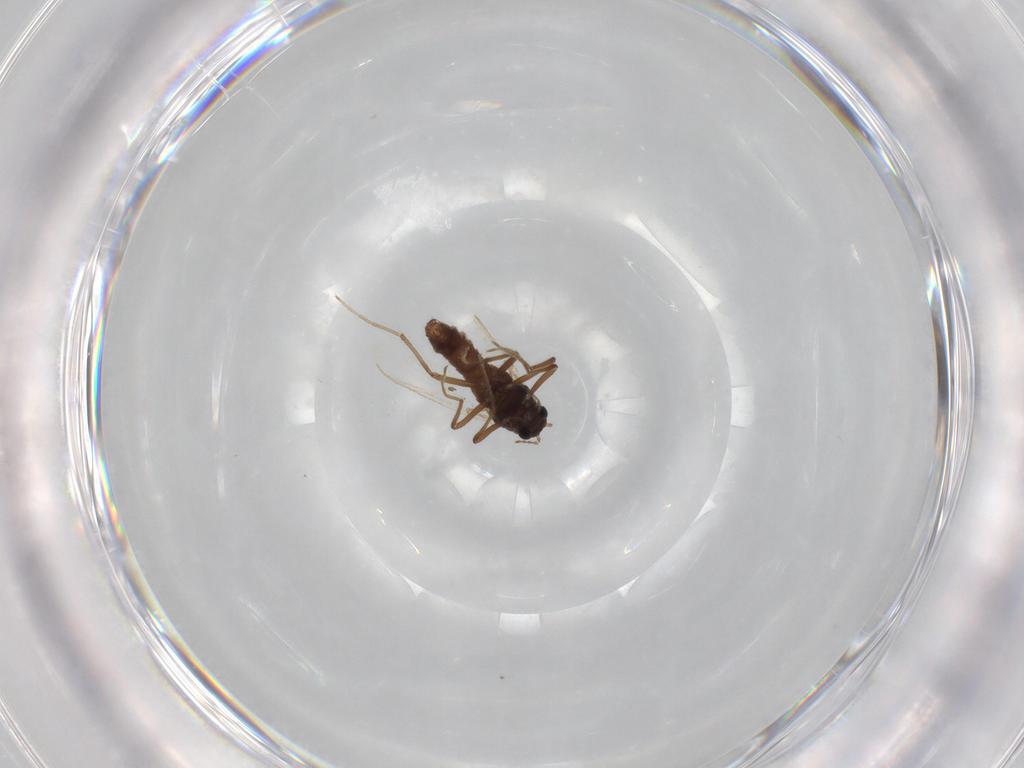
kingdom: Animalia
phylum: Arthropoda
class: Insecta
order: Diptera
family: Chironomidae
